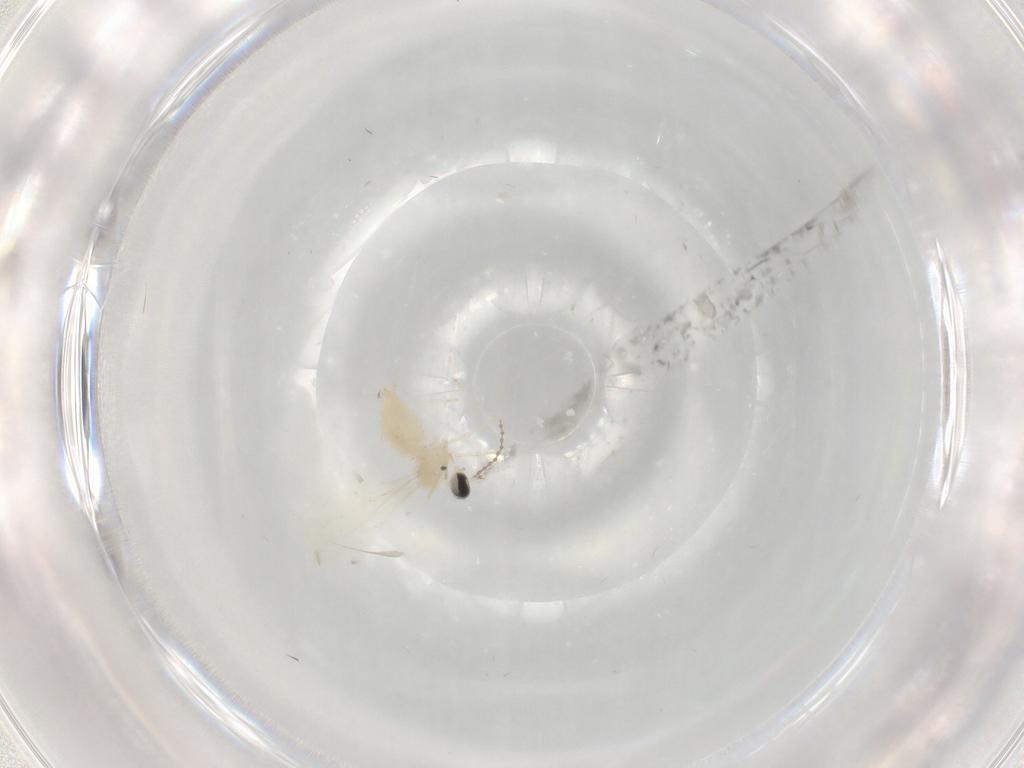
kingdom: Animalia
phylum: Arthropoda
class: Insecta
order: Diptera
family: Cecidomyiidae
